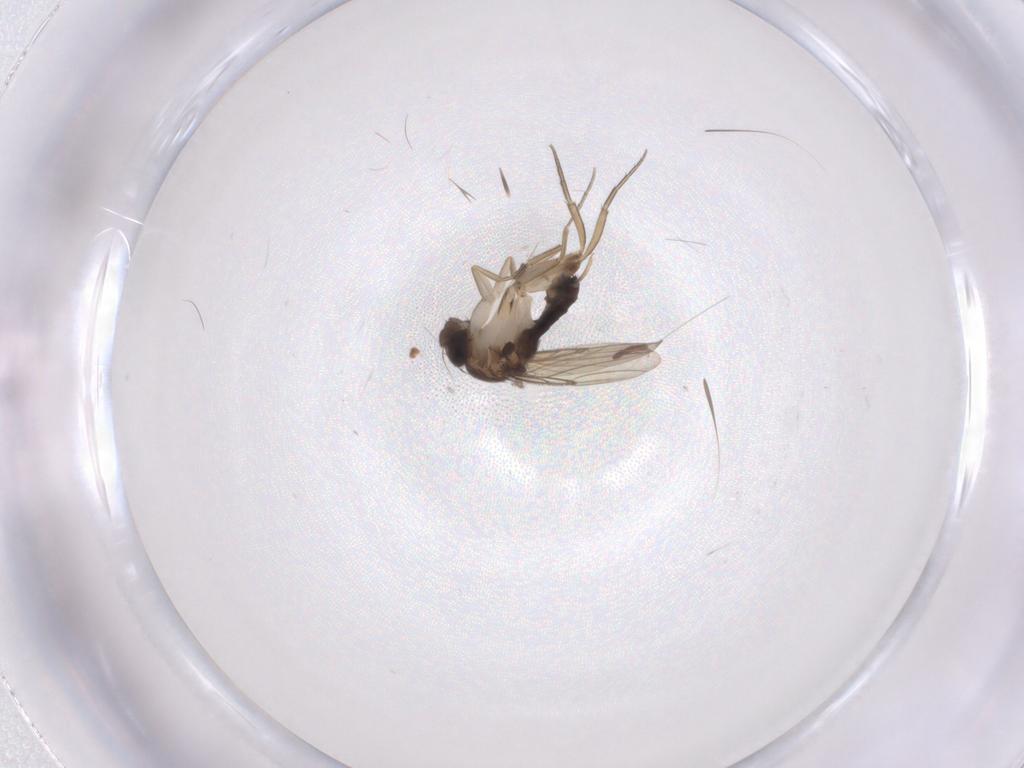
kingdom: Animalia
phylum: Arthropoda
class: Insecta
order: Diptera
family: Phoridae
